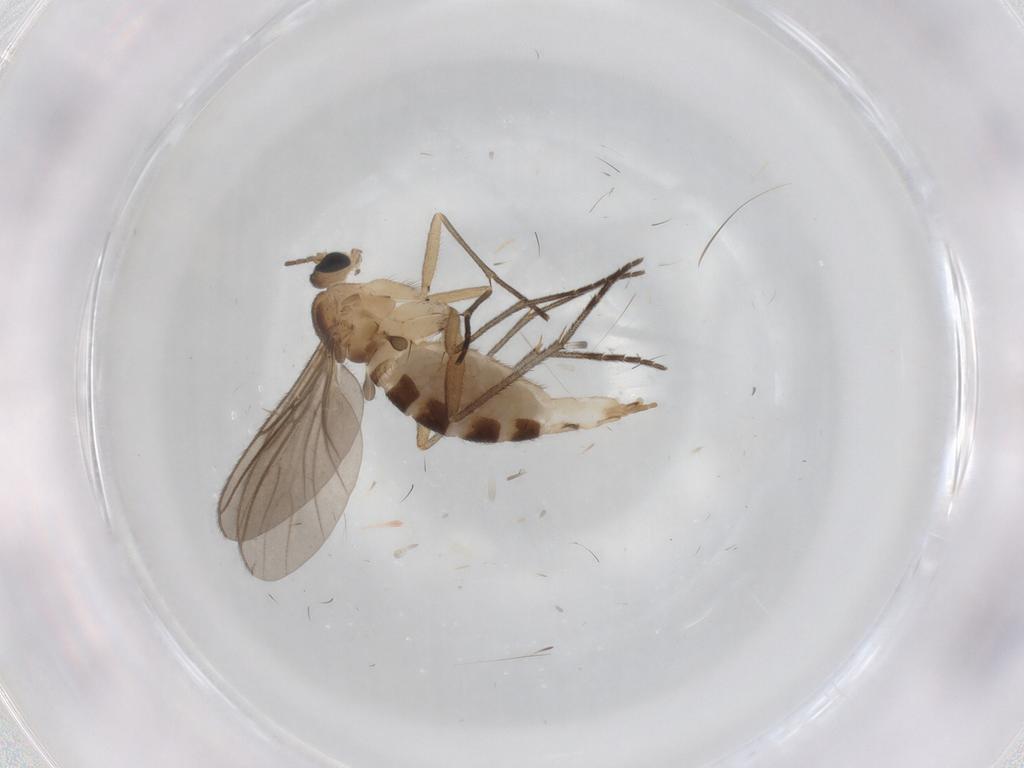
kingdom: Animalia
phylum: Arthropoda
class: Insecta
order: Diptera
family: Sciaridae
